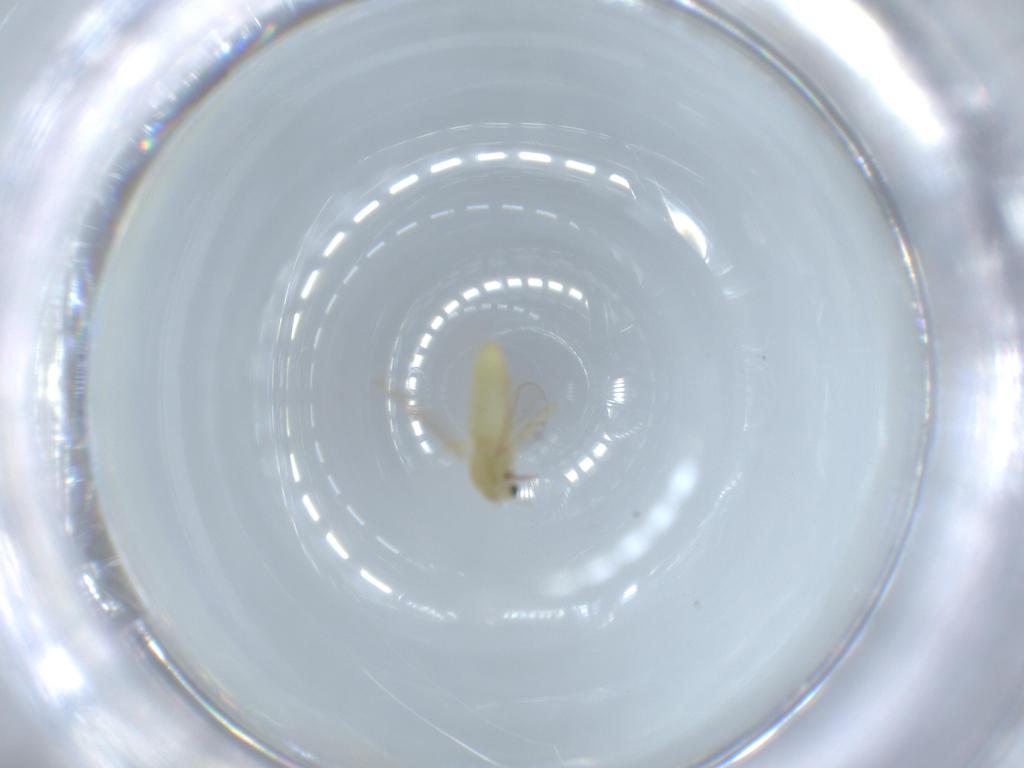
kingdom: Animalia
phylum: Arthropoda
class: Insecta
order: Diptera
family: Chironomidae
